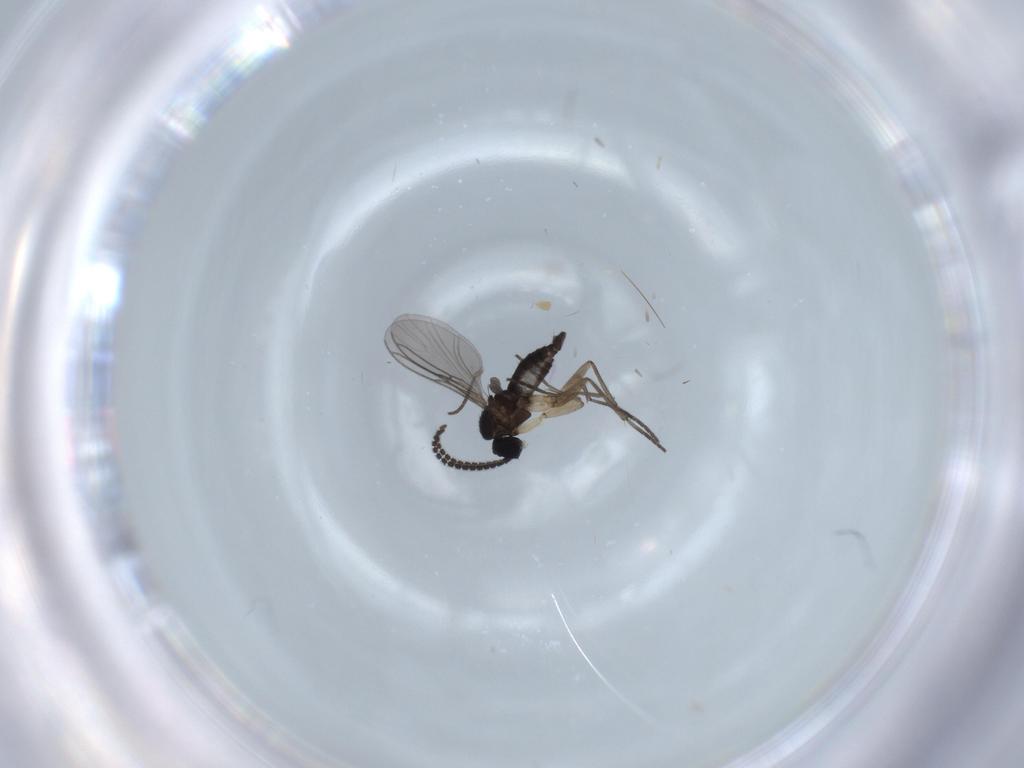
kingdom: Animalia
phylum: Arthropoda
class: Insecta
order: Diptera
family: Sciaridae
